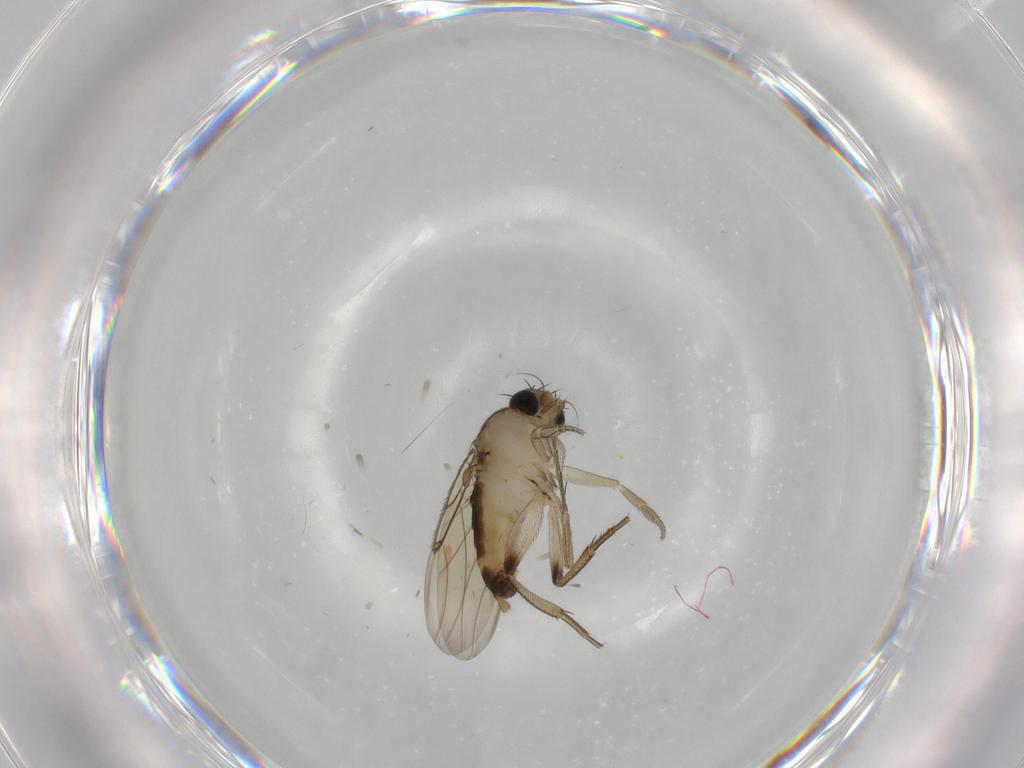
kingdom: Animalia
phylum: Arthropoda
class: Insecta
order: Diptera
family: Phoridae
